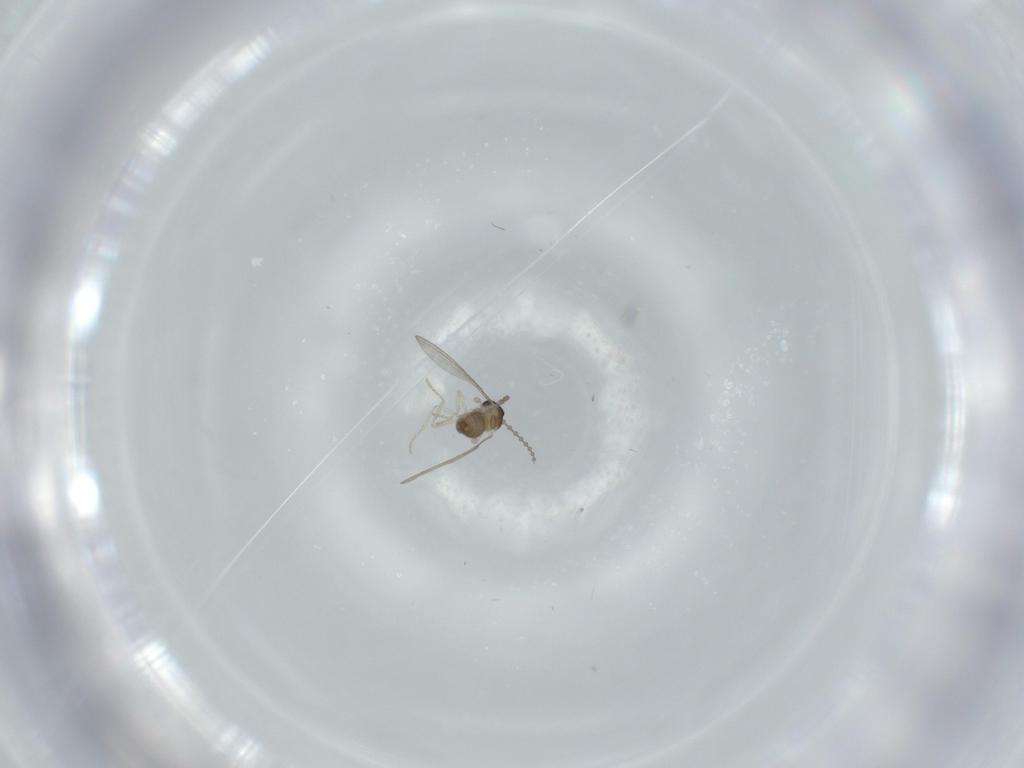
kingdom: Animalia
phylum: Arthropoda
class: Insecta
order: Diptera
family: Cecidomyiidae
